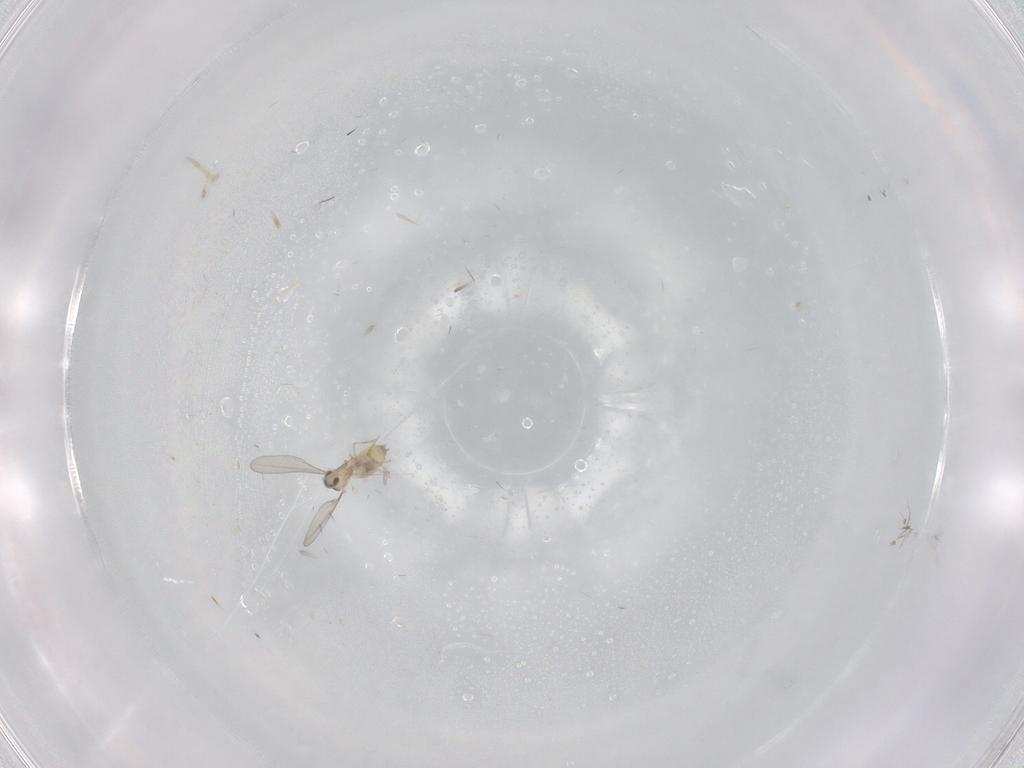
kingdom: Animalia
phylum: Arthropoda
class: Insecta
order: Diptera
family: Cecidomyiidae
